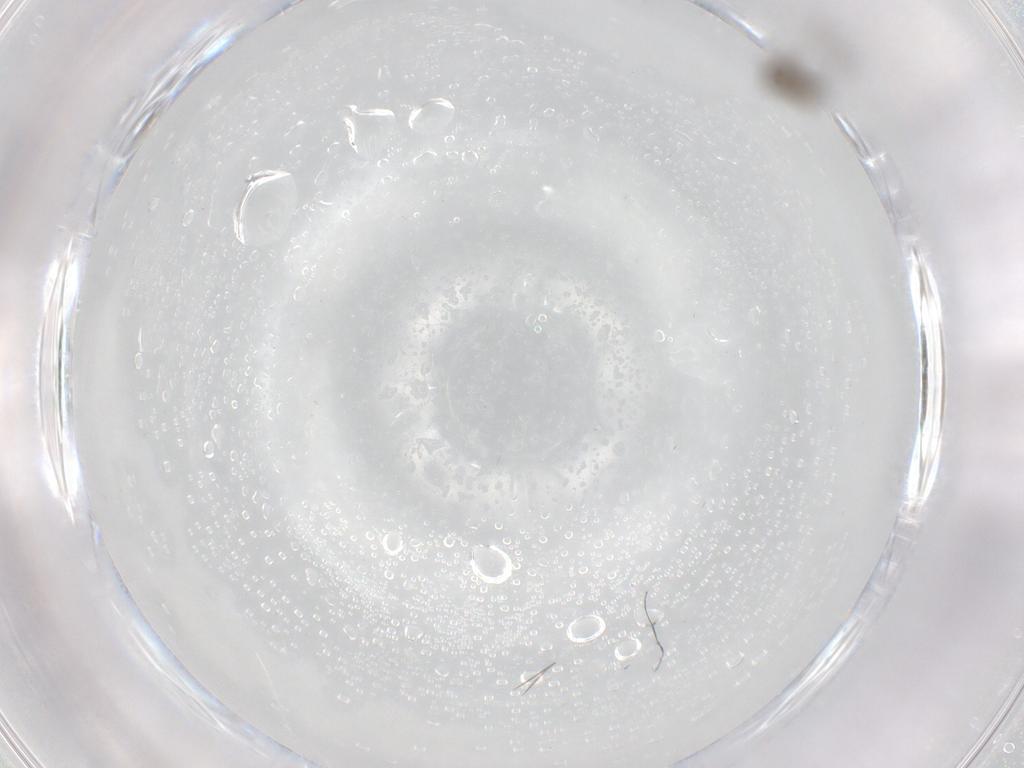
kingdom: Animalia
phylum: Arthropoda
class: Insecta
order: Diptera
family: Cecidomyiidae
